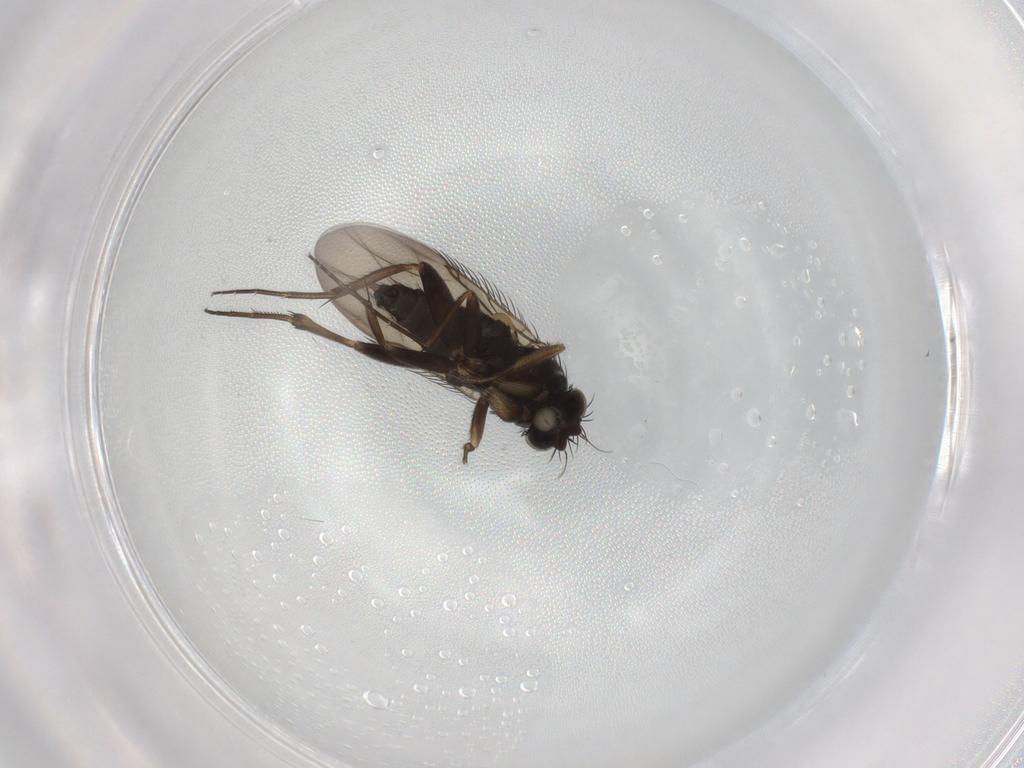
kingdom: Animalia
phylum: Arthropoda
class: Insecta
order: Diptera
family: Phoridae
